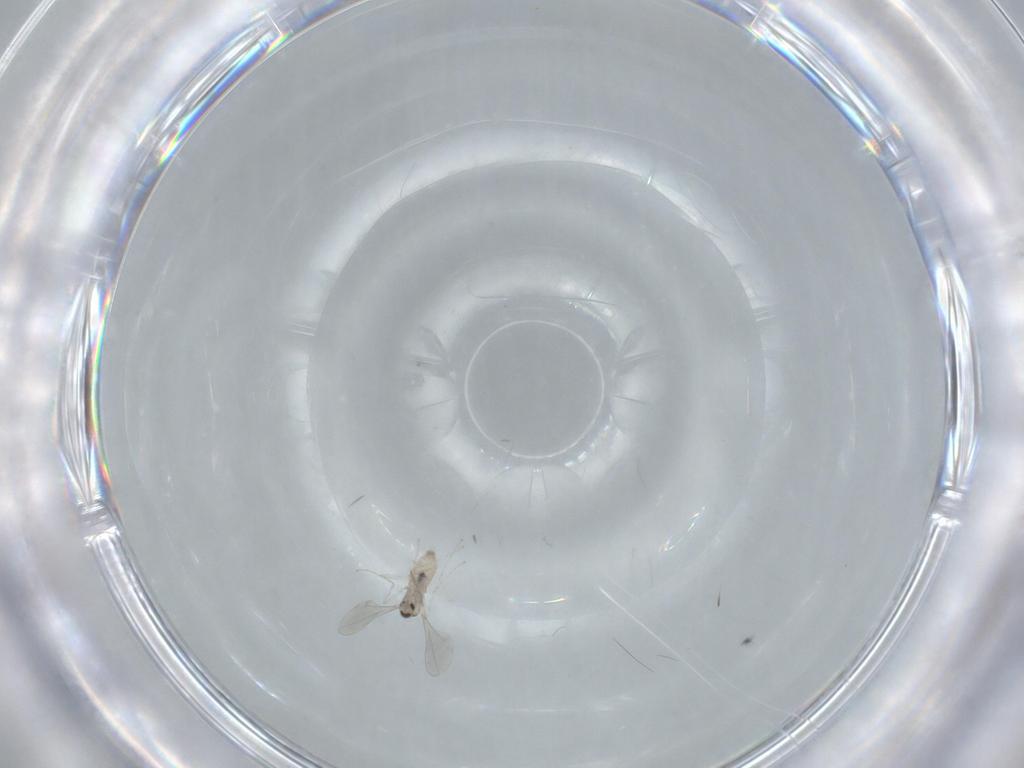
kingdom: Animalia
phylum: Arthropoda
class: Insecta
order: Diptera
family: Cecidomyiidae
